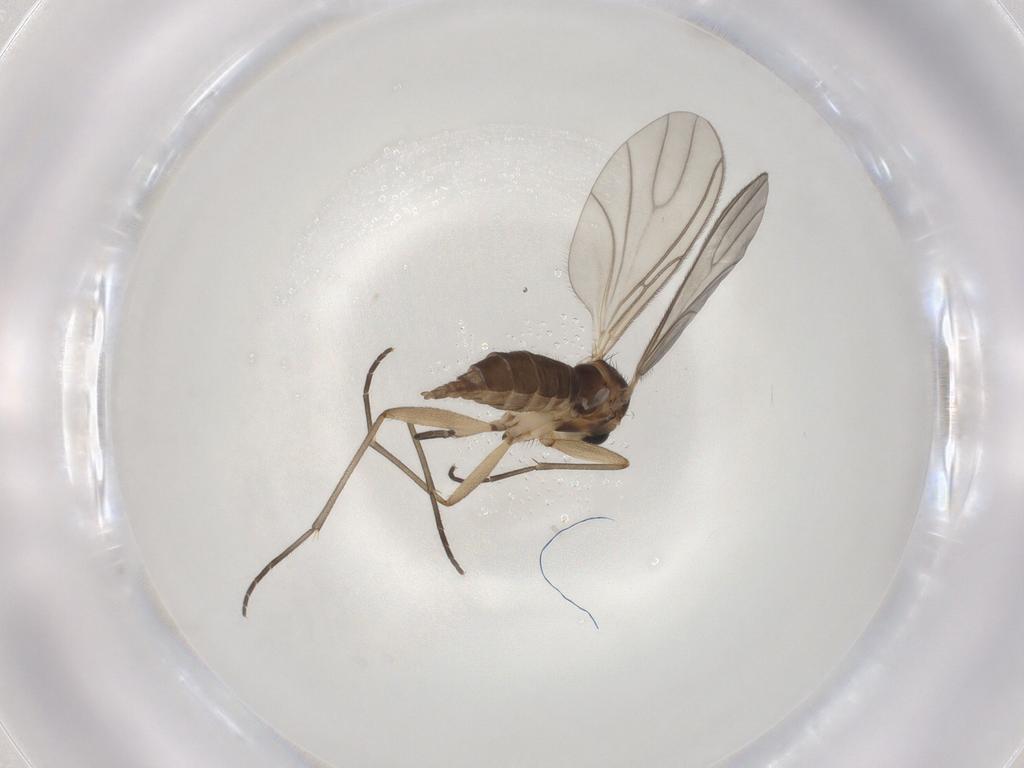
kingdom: Animalia
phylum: Arthropoda
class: Insecta
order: Diptera
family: Sciaridae
